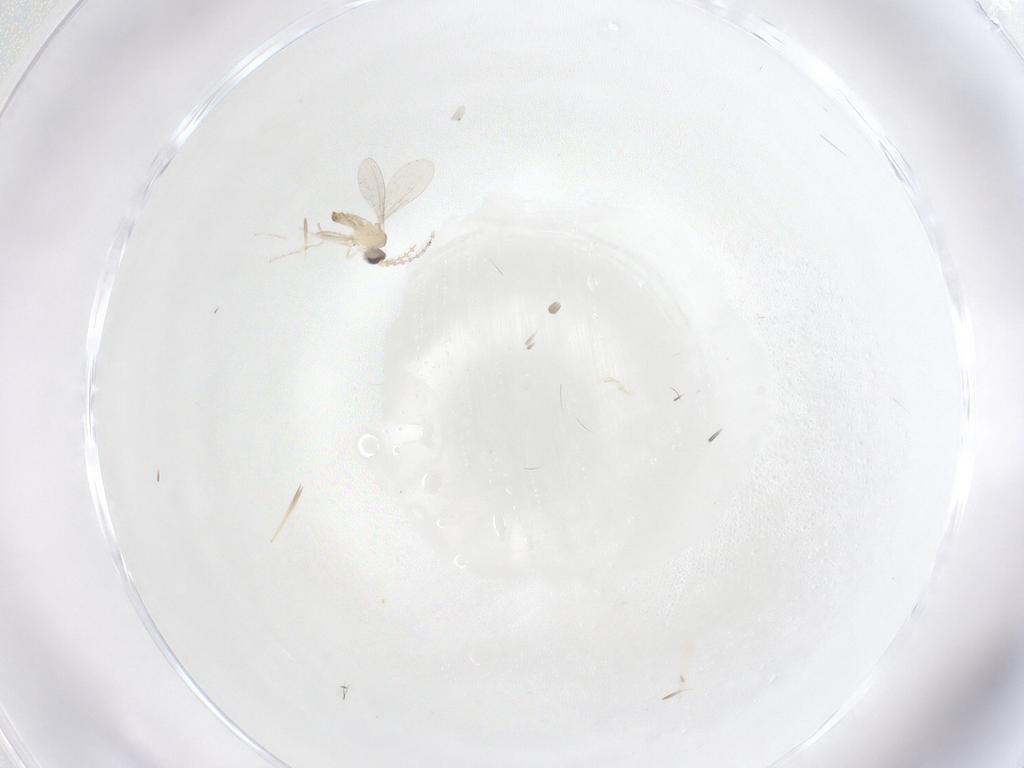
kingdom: Animalia
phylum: Arthropoda
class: Insecta
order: Diptera
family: Cecidomyiidae
